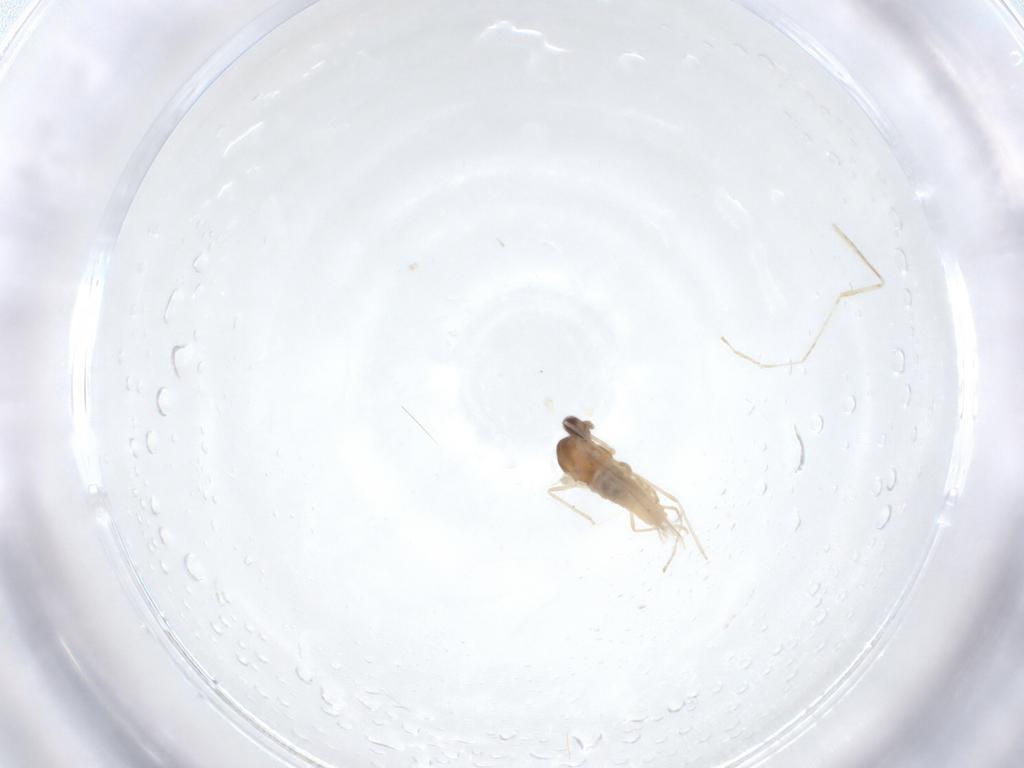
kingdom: Animalia
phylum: Arthropoda
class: Insecta
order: Diptera
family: Cecidomyiidae
